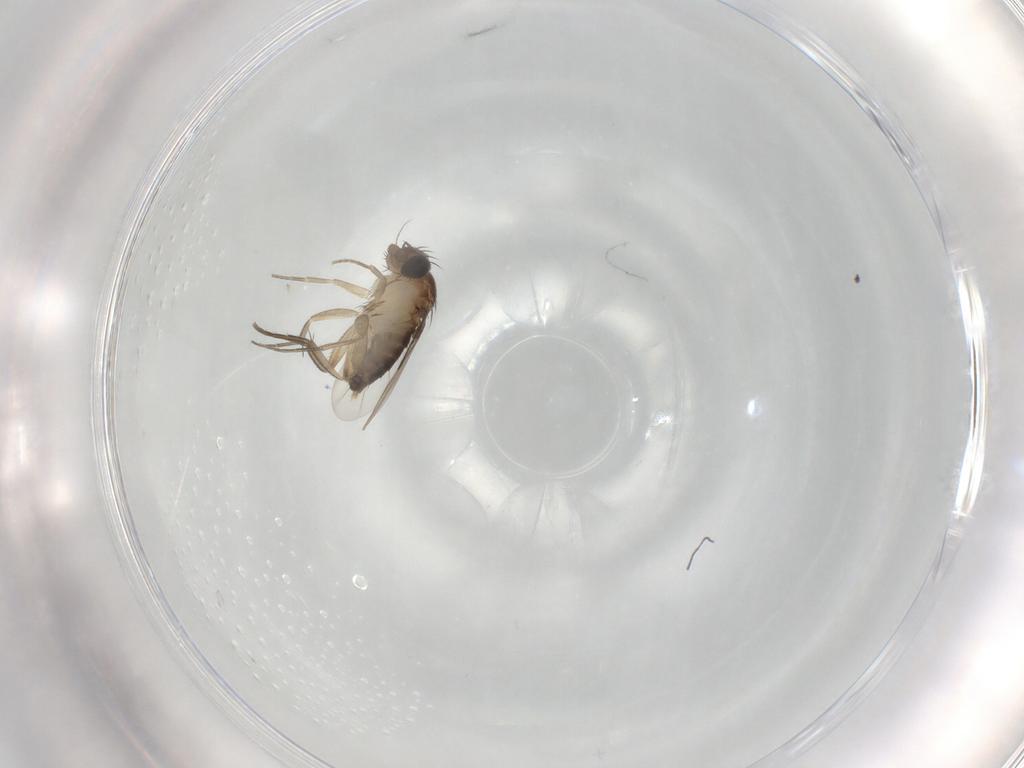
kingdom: Animalia
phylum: Arthropoda
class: Insecta
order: Diptera
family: Phoridae
